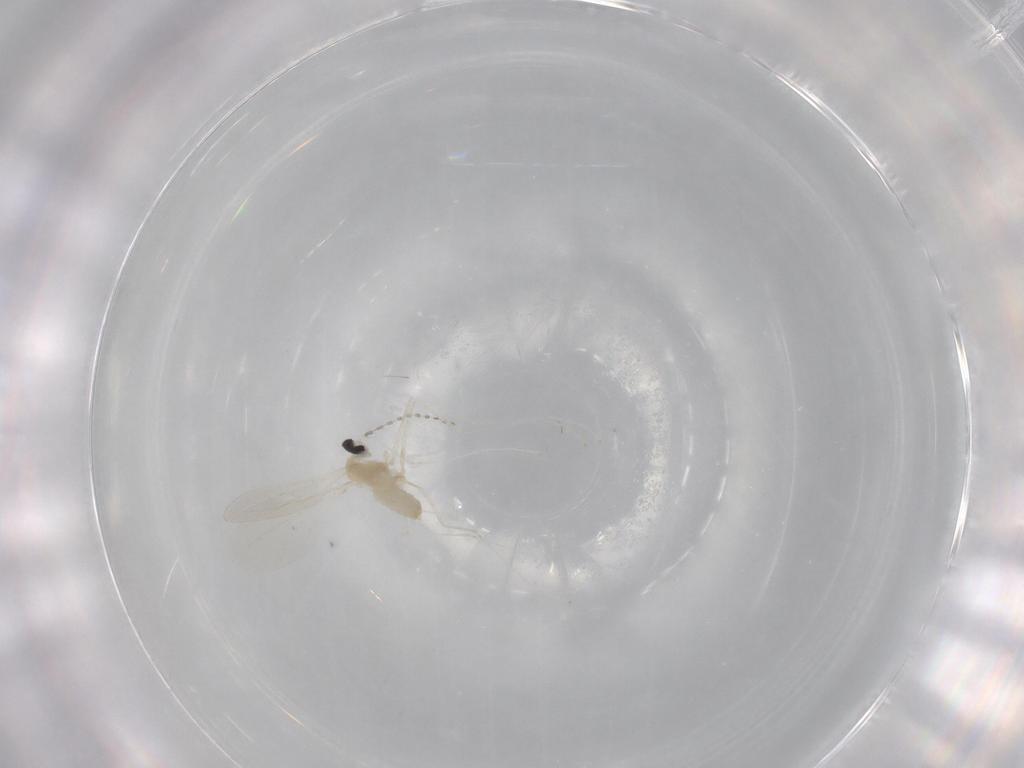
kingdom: Animalia
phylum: Arthropoda
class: Insecta
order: Diptera
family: Cecidomyiidae
